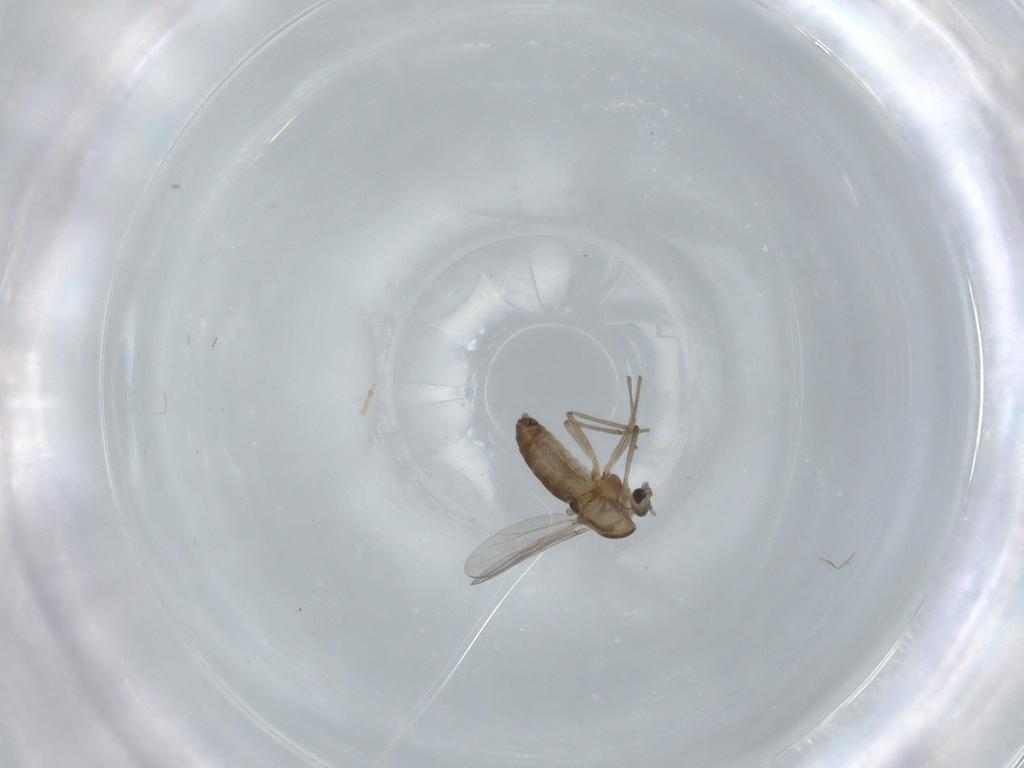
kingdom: Animalia
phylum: Arthropoda
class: Insecta
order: Diptera
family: Chironomidae
